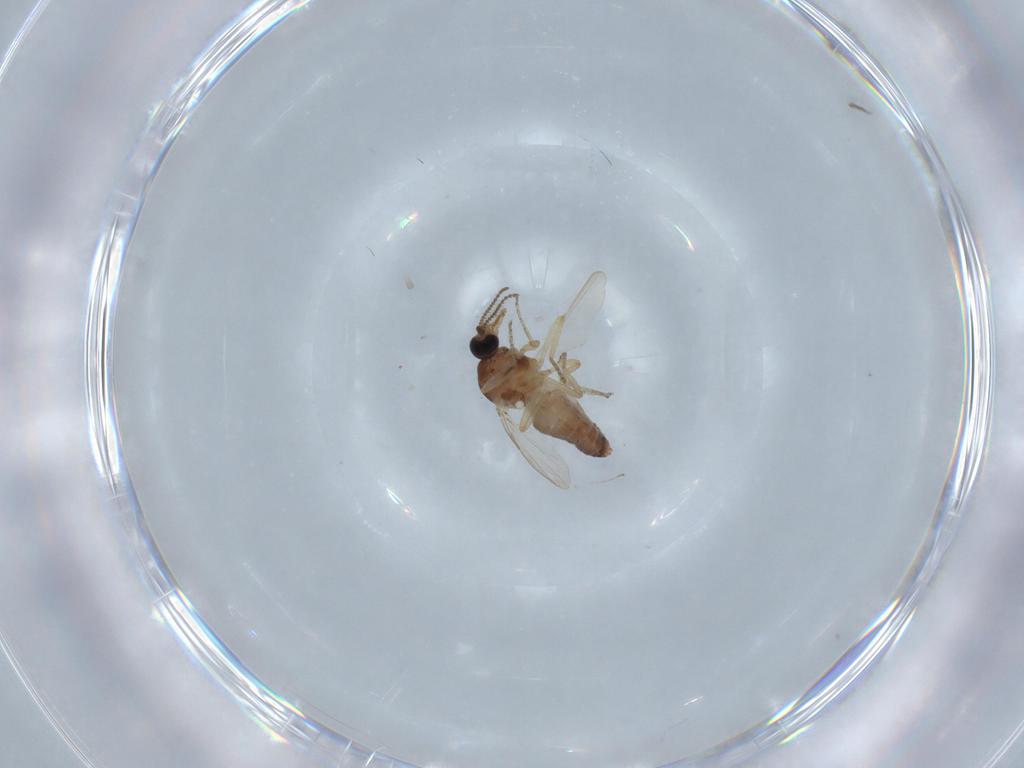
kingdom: Animalia
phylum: Arthropoda
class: Insecta
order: Diptera
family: Ceratopogonidae
